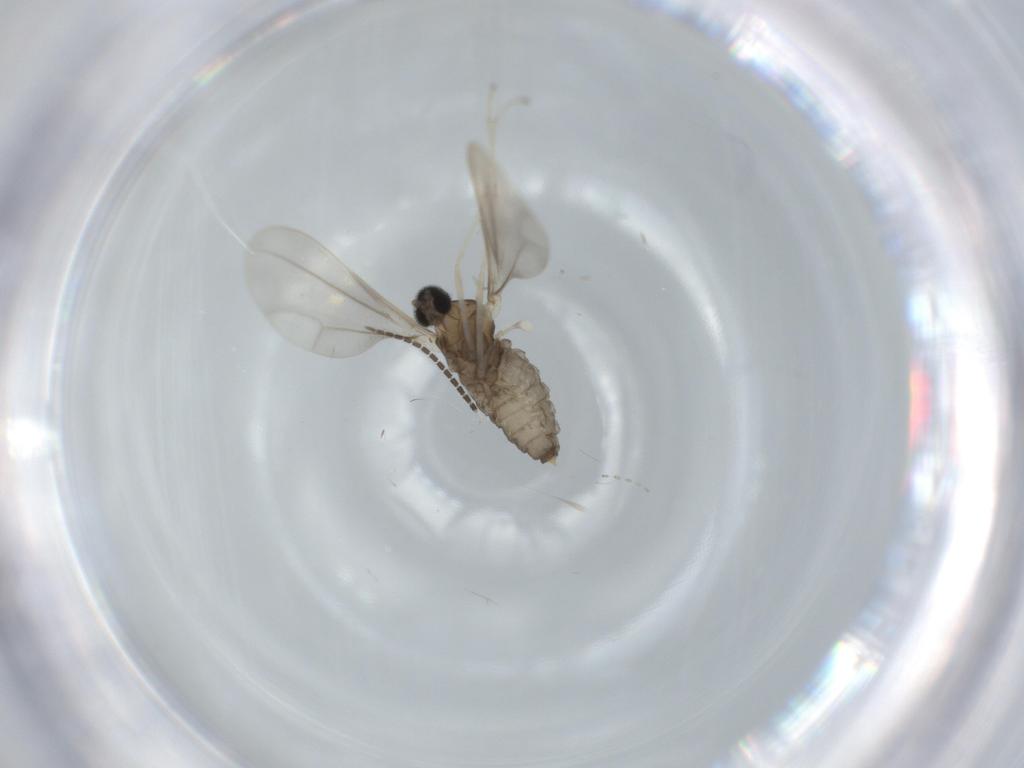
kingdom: Animalia
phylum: Arthropoda
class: Insecta
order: Diptera
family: Cecidomyiidae
